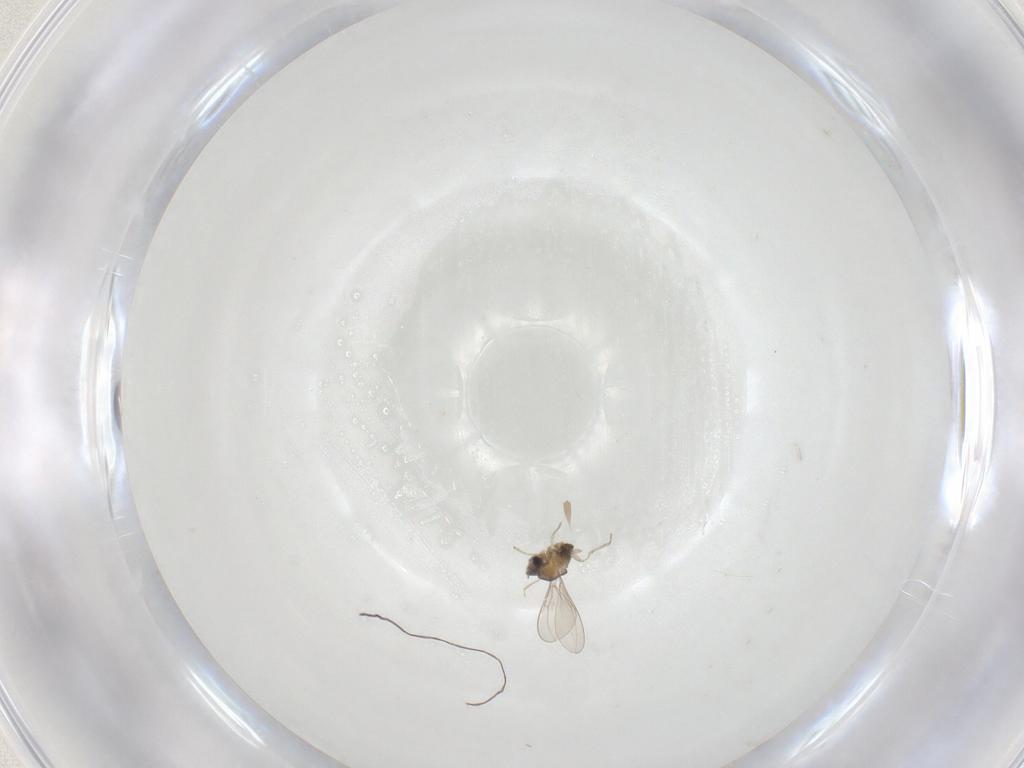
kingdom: Animalia
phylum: Arthropoda
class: Insecta
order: Diptera
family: Cecidomyiidae
